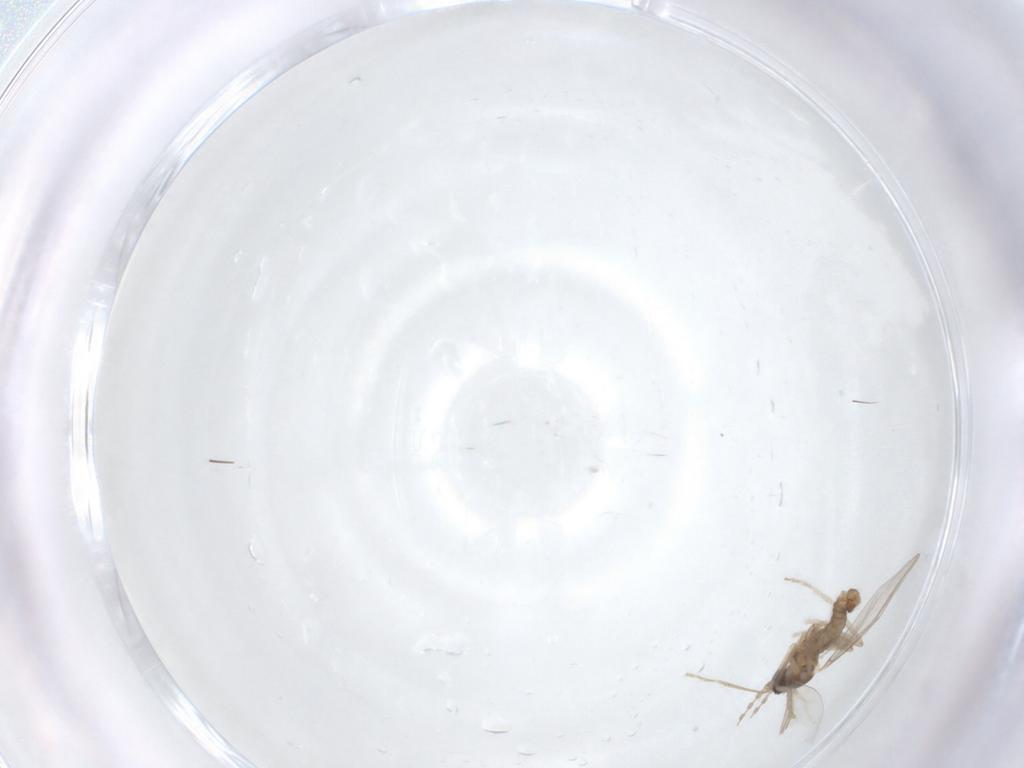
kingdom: Animalia
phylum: Arthropoda
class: Insecta
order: Diptera
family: Cecidomyiidae
